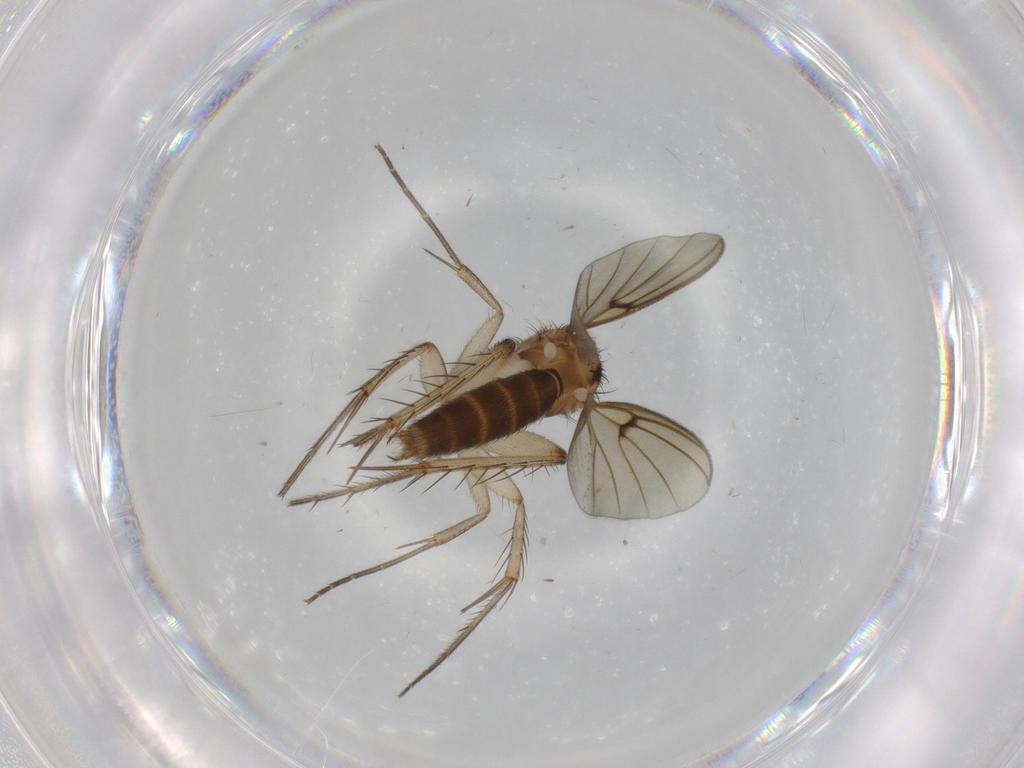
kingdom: Animalia
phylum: Arthropoda
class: Insecta
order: Diptera
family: Mycetophilidae
